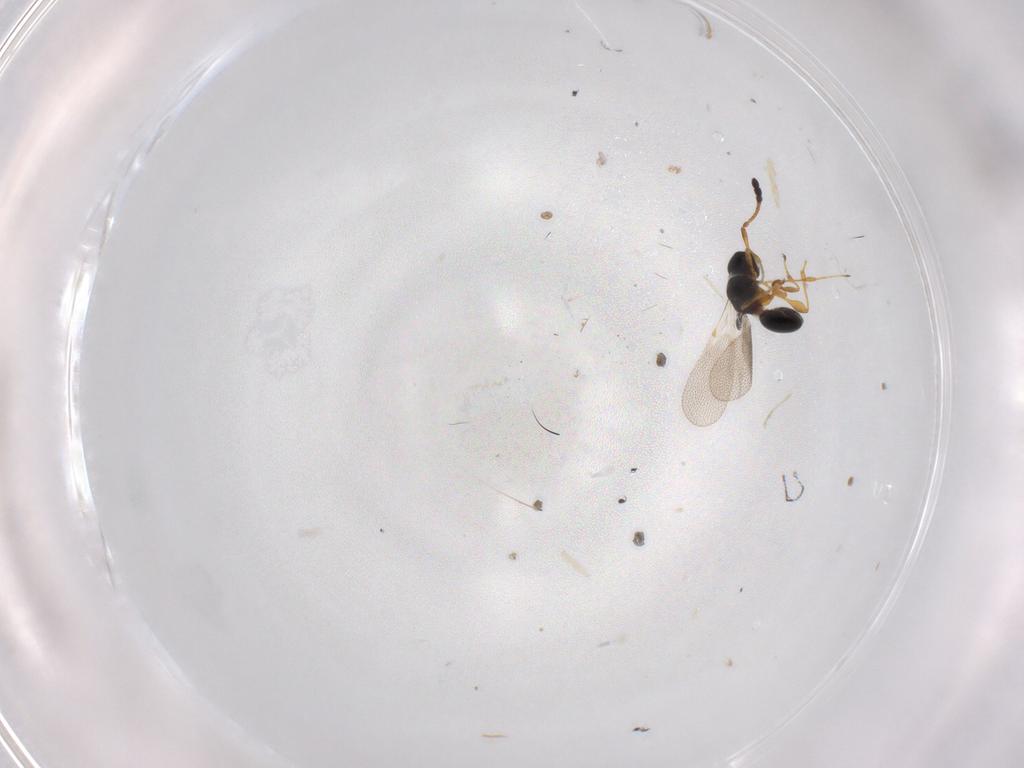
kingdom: Animalia
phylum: Arthropoda
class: Insecta
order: Hymenoptera
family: Diapriidae
